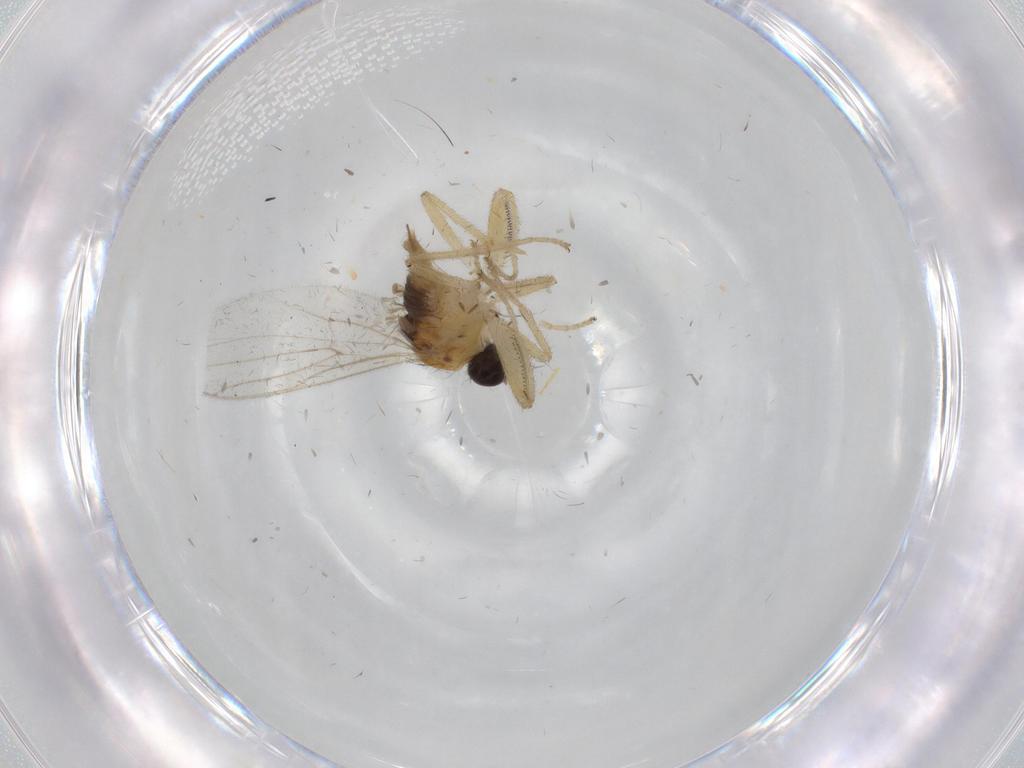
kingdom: Animalia
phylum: Arthropoda
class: Insecta
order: Diptera
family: Hybotidae
